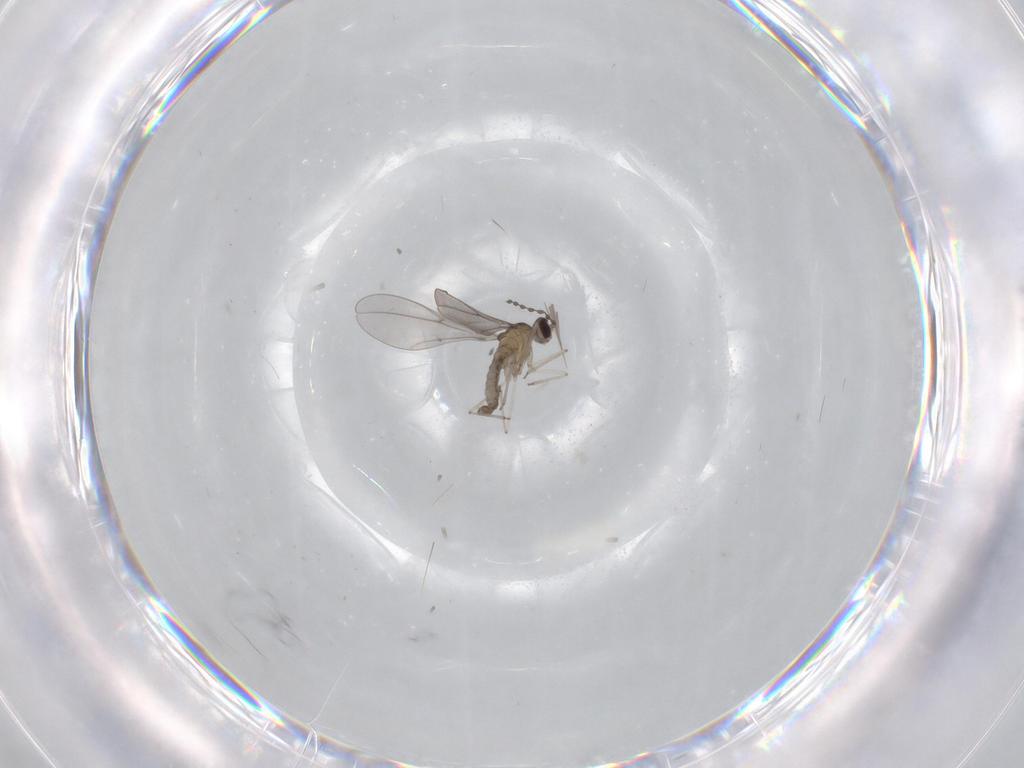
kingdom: Animalia
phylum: Arthropoda
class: Insecta
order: Diptera
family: Cecidomyiidae
